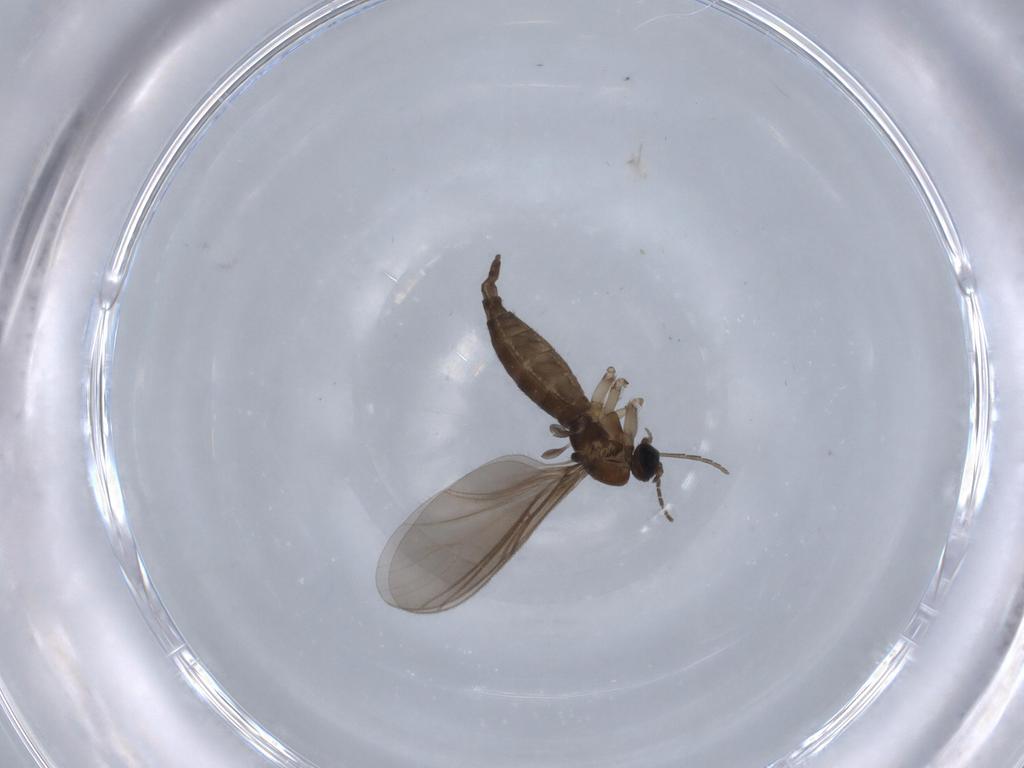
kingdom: Animalia
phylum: Arthropoda
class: Insecta
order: Diptera
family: Sciaridae
